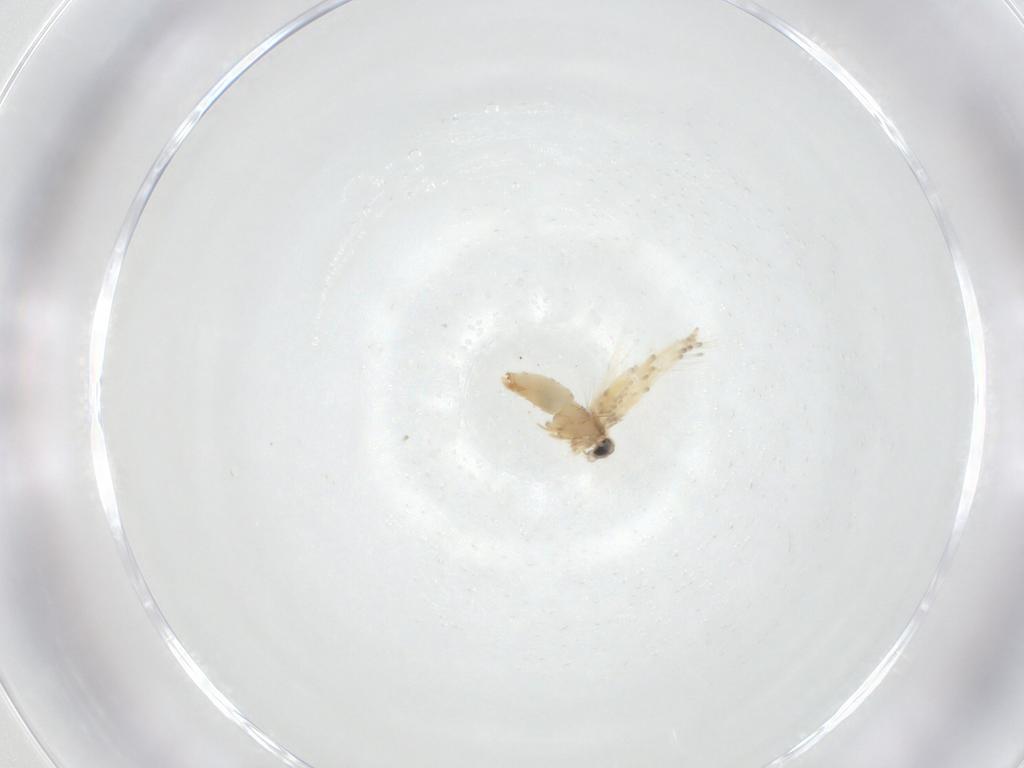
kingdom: Animalia
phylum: Arthropoda
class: Insecta
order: Lepidoptera
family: Crambidae
